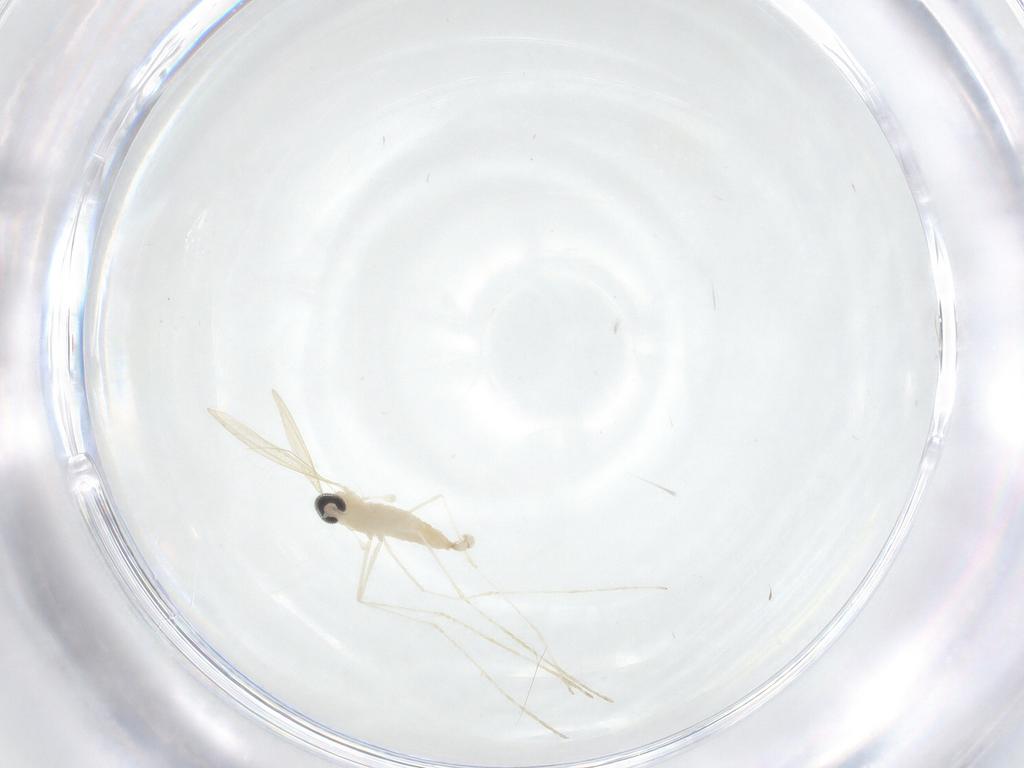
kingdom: Animalia
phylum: Arthropoda
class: Insecta
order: Diptera
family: Cecidomyiidae
